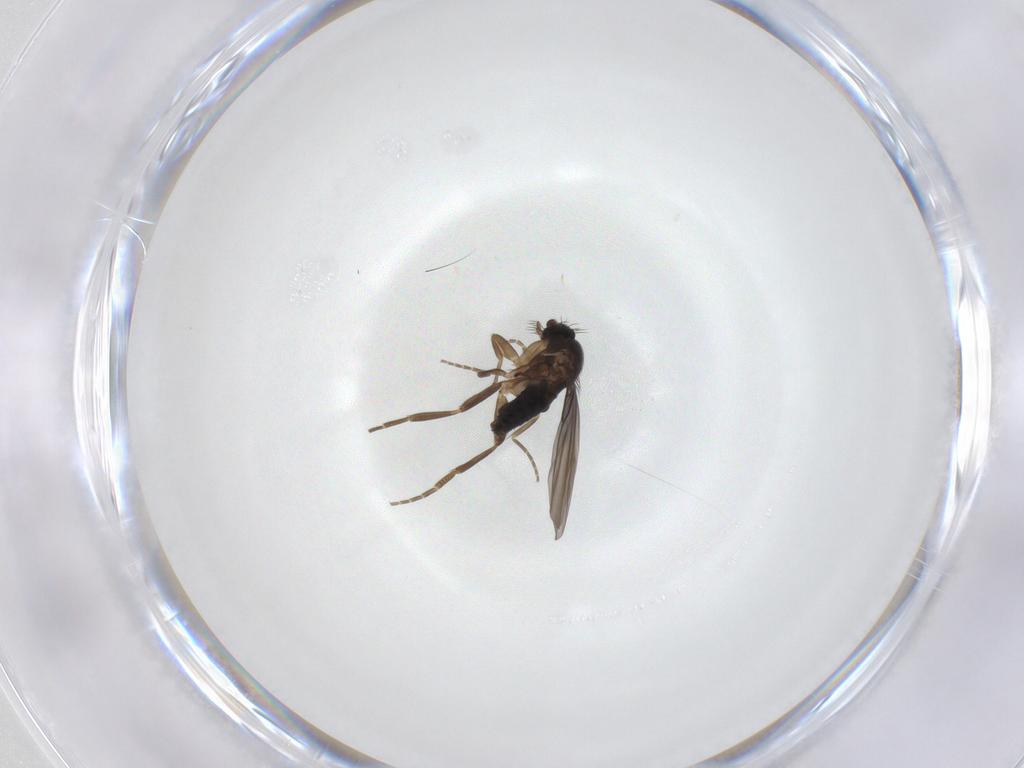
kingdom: Animalia
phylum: Arthropoda
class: Insecta
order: Diptera
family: Phoridae
